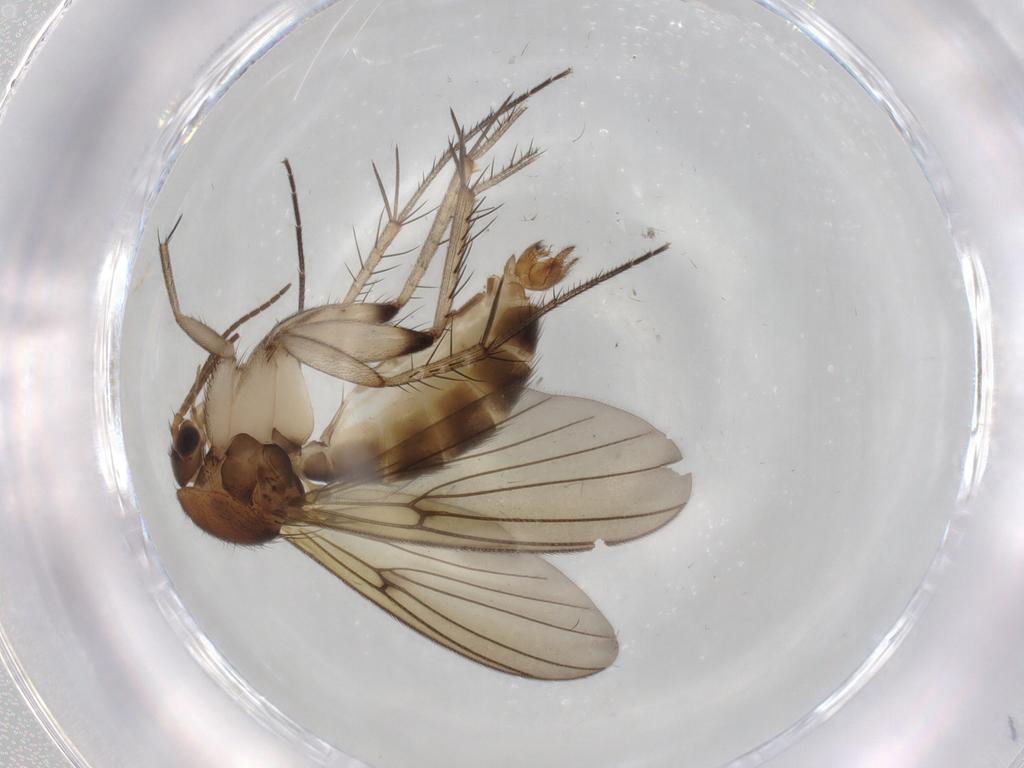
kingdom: Animalia
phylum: Arthropoda
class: Insecta
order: Diptera
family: Mycetophilidae
